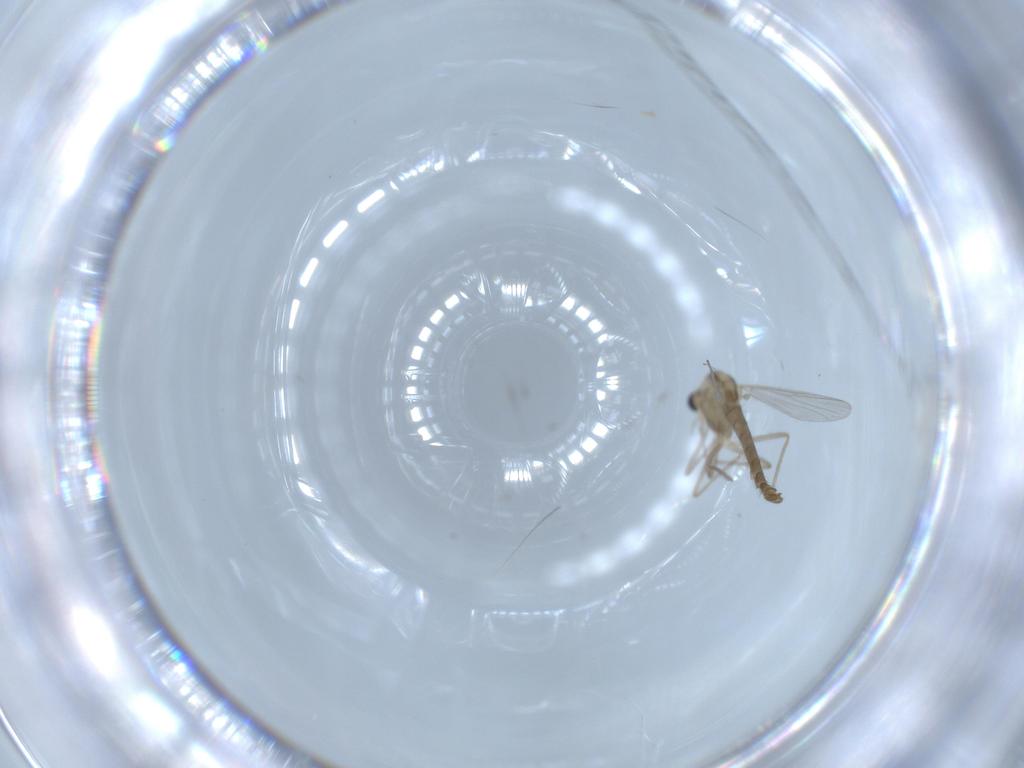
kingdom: Animalia
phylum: Arthropoda
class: Insecta
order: Diptera
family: Chironomidae
